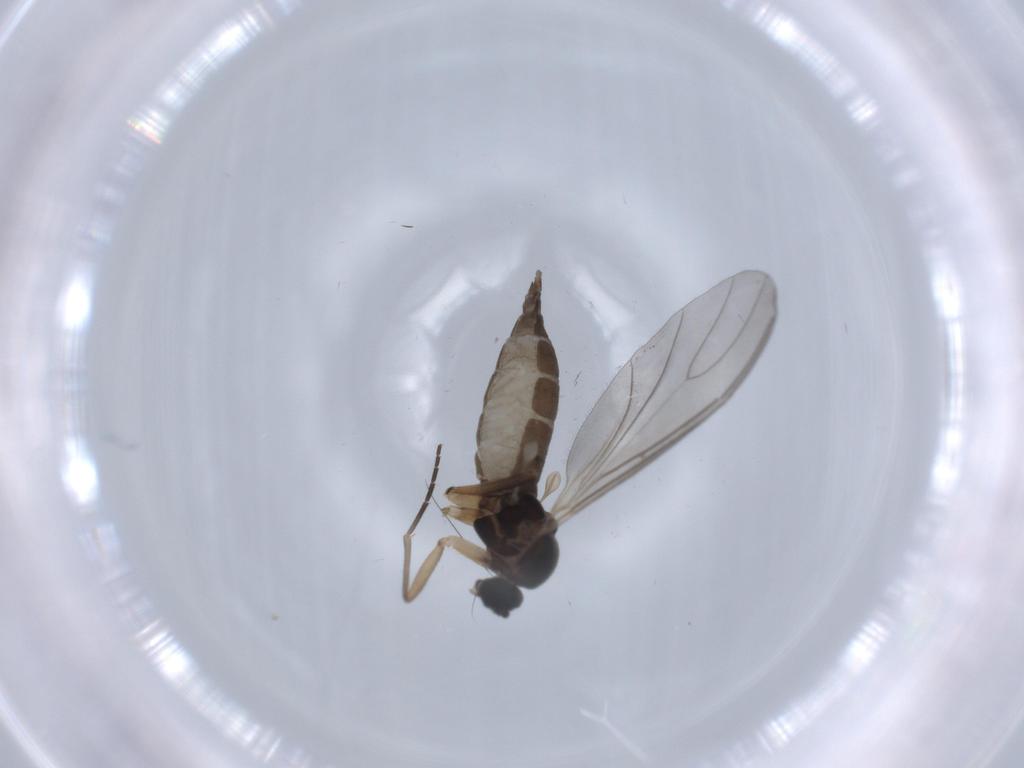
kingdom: Animalia
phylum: Arthropoda
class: Insecta
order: Diptera
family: Sciaridae
